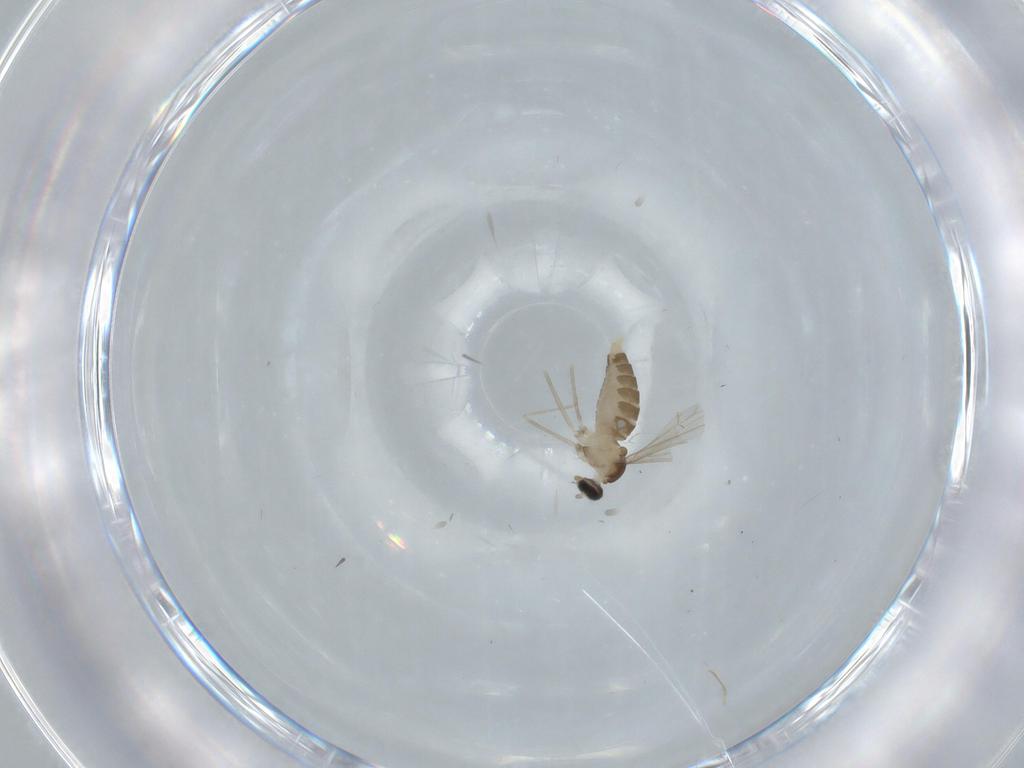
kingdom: Animalia
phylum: Arthropoda
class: Insecta
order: Diptera
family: Cecidomyiidae
